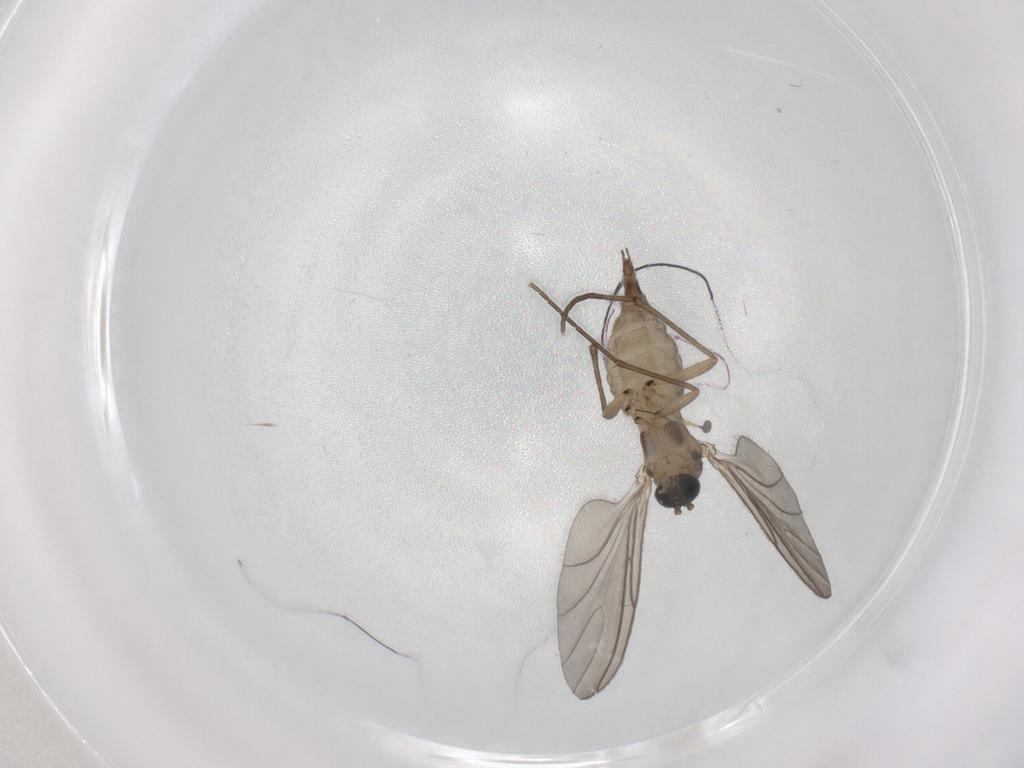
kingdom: Animalia
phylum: Arthropoda
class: Insecta
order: Diptera
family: Sciaridae
